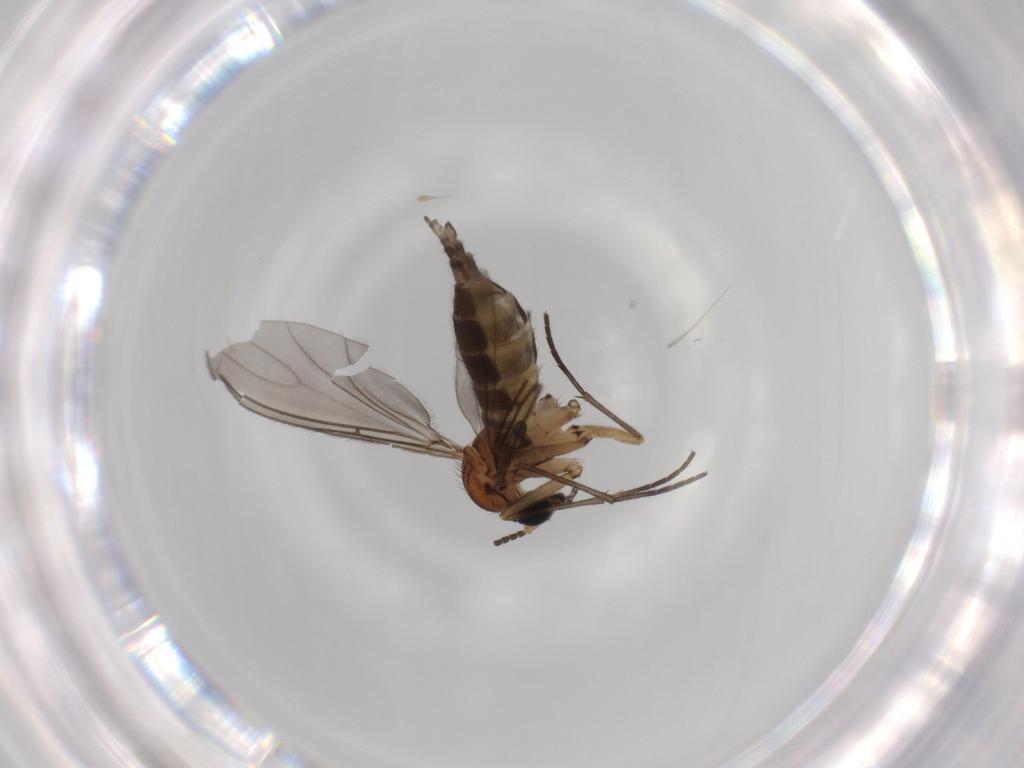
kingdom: Animalia
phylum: Arthropoda
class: Insecta
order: Diptera
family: Sciaridae
